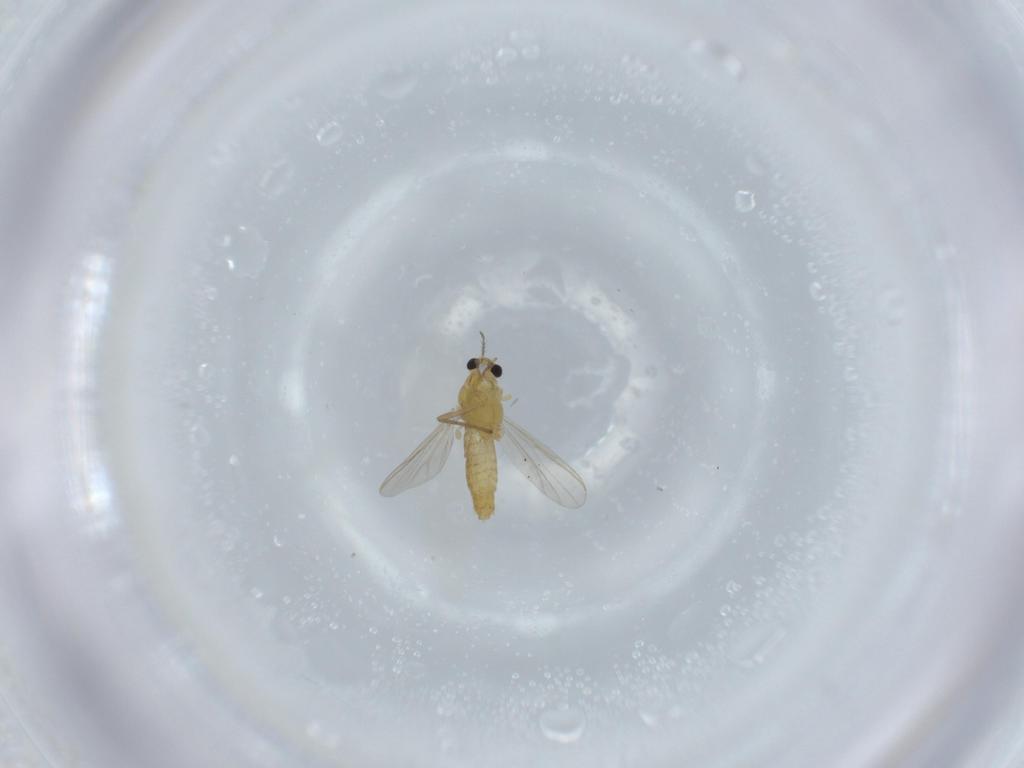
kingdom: Animalia
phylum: Arthropoda
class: Insecta
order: Diptera
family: Chironomidae
